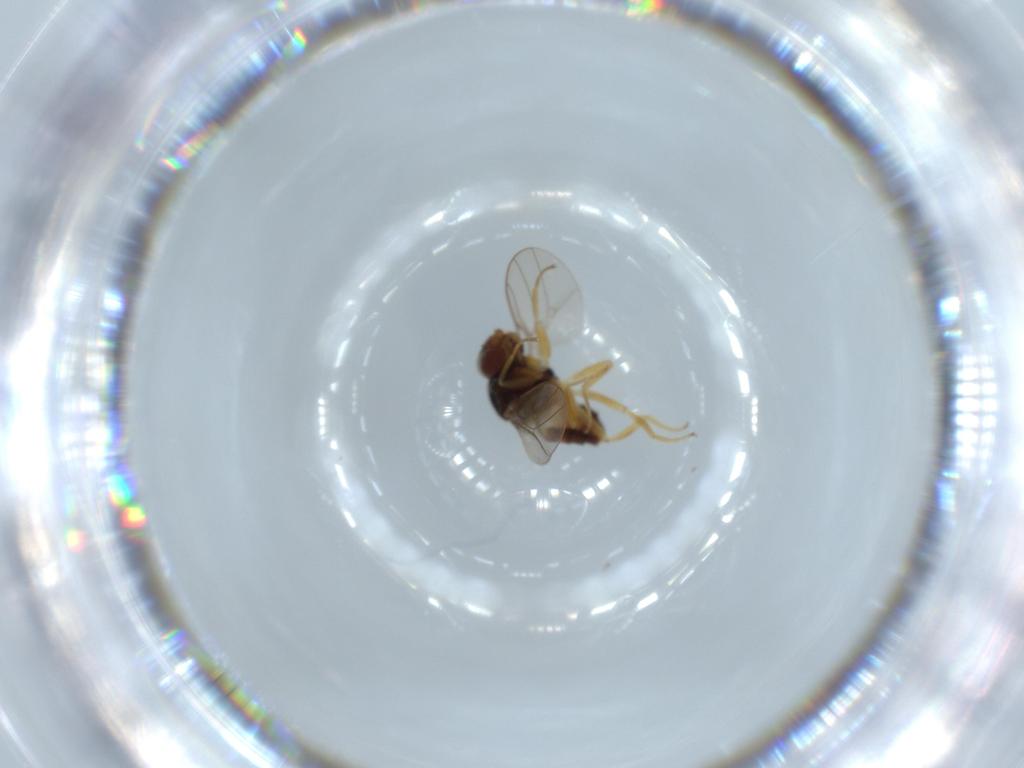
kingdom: Animalia
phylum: Arthropoda
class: Insecta
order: Diptera
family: Chloropidae
